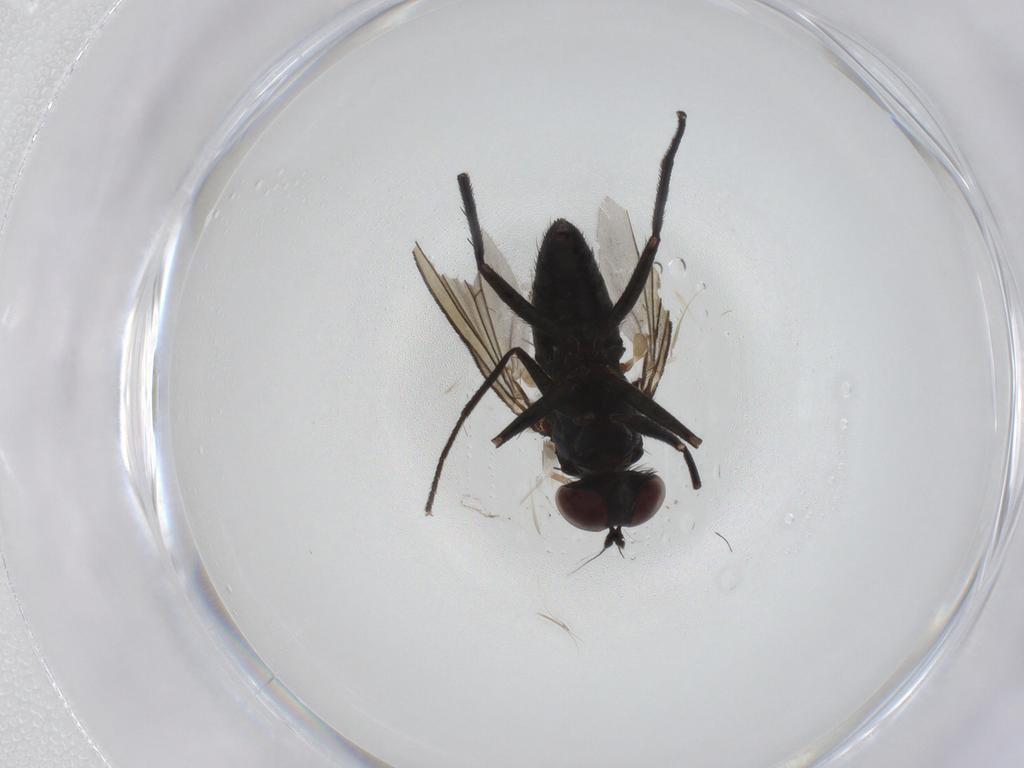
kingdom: Animalia
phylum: Arthropoda
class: Insecta
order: Diptera
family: Dolichopodidae
